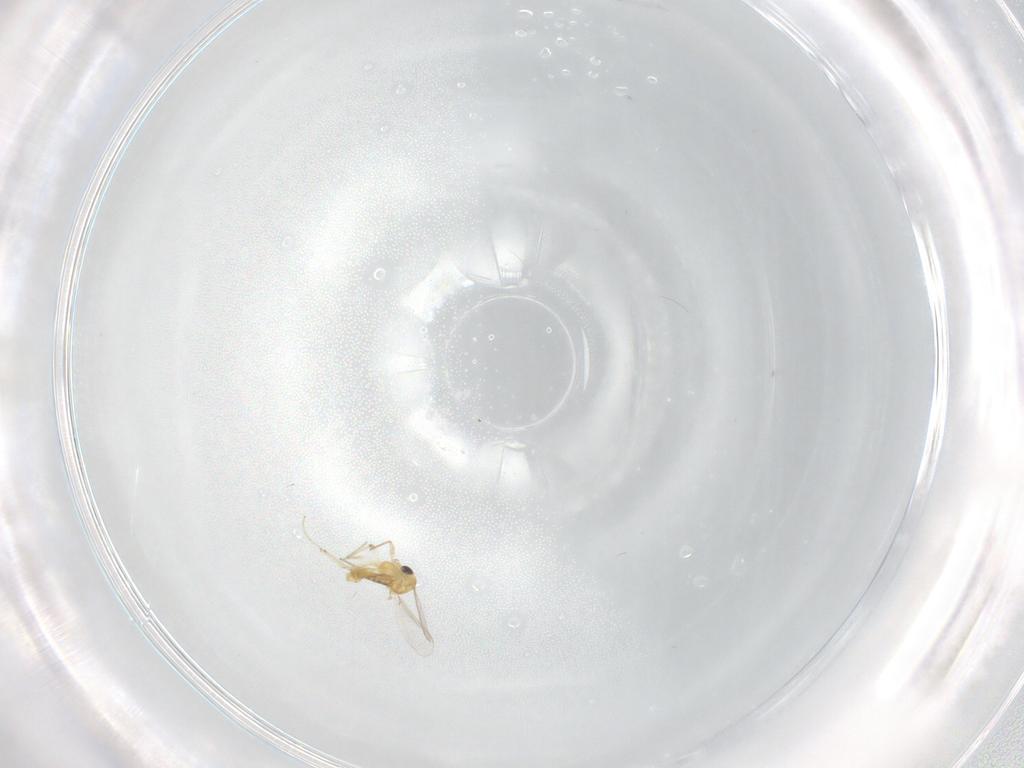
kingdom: Animalia
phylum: Arthropoda
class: Insecta
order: Diptera
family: Chironomidae
